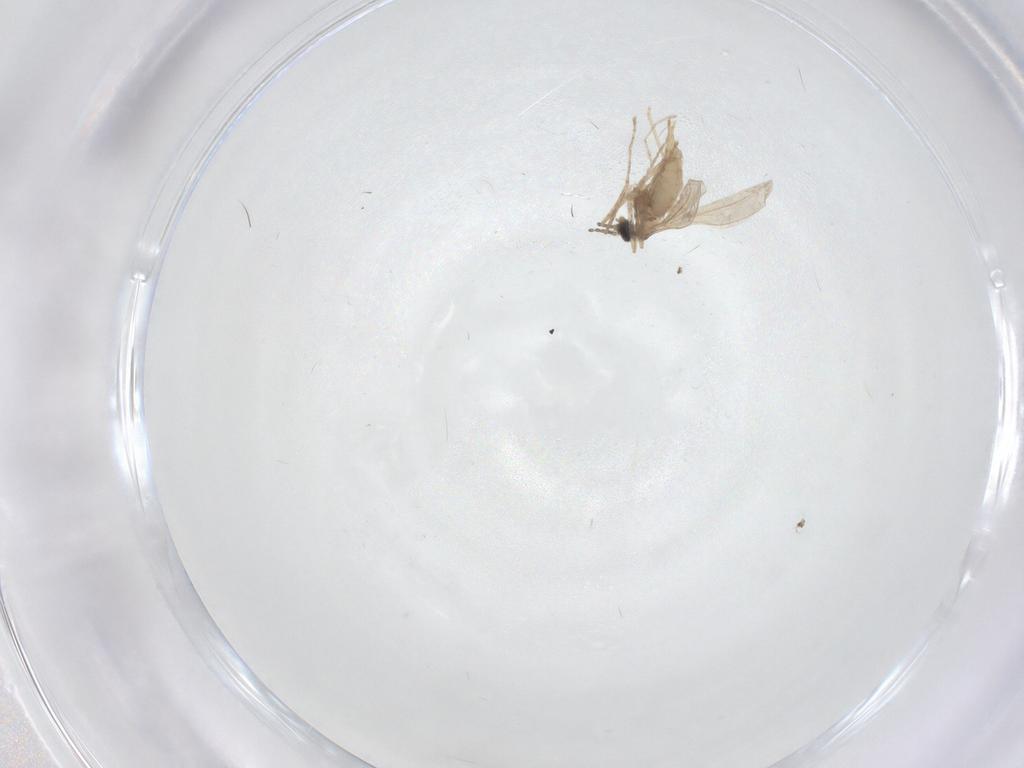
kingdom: Animalia
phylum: Arthropoda
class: Insecta
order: Diptera
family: Cecidomyiidae
